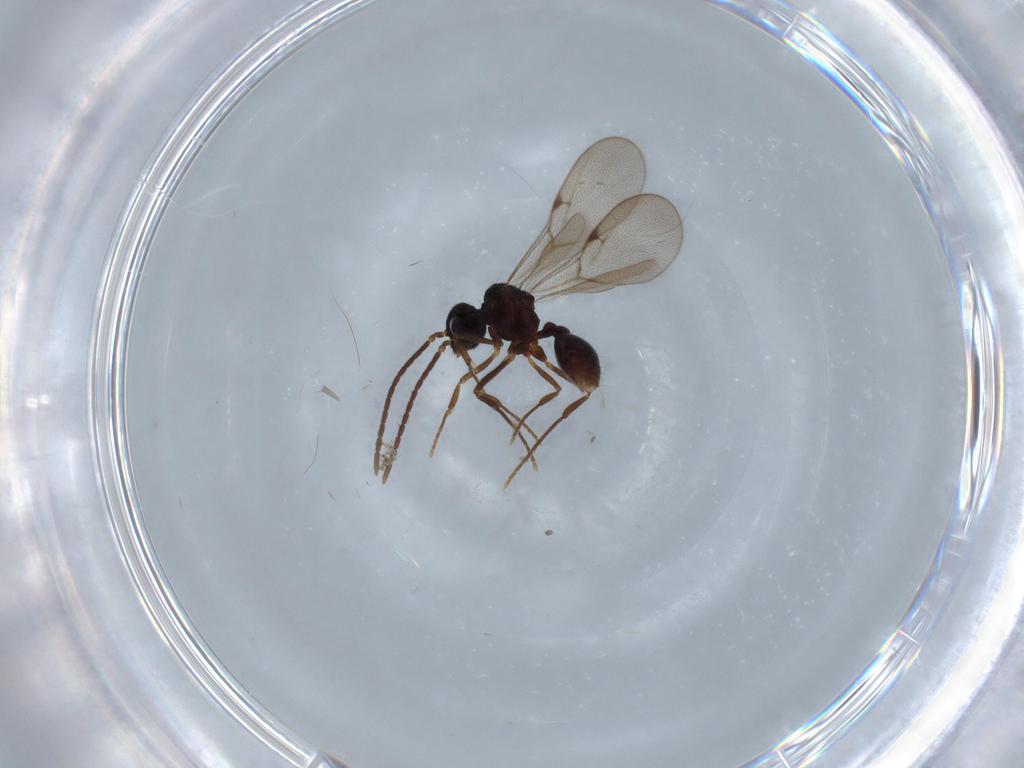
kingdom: Animalia
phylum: Arthropoda
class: Insecta
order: Hymenoptera
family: Formicidae
